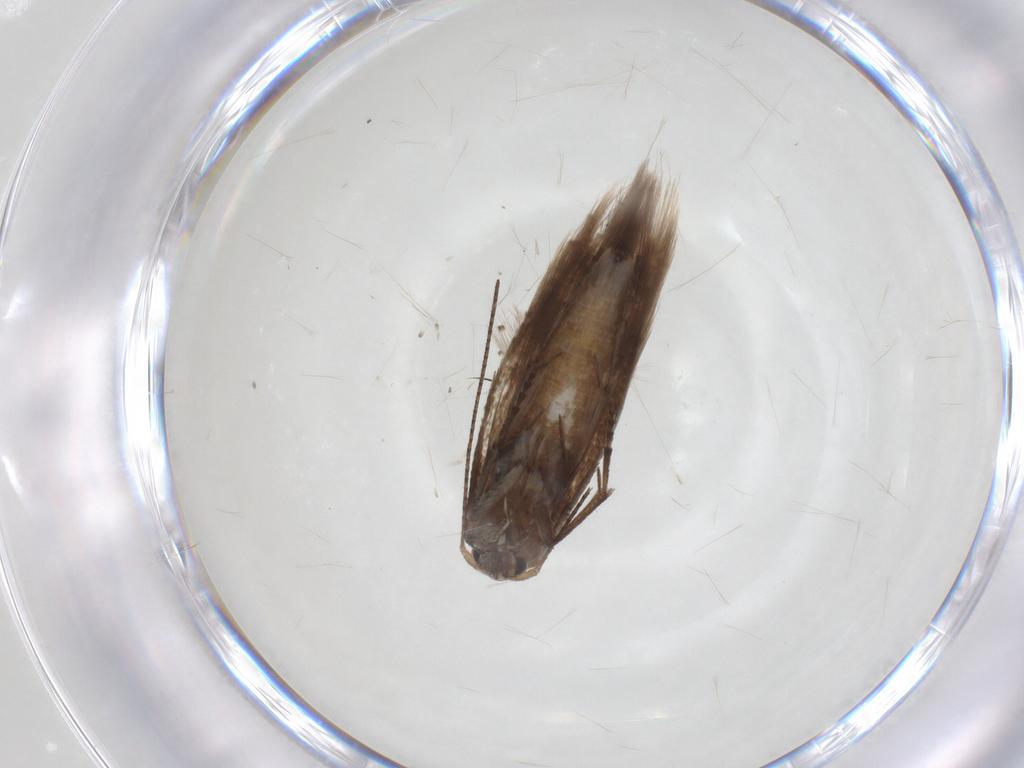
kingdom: Animalia
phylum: Arthropoda
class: Insecta
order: Lepidoptera
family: Bucculatricidae
